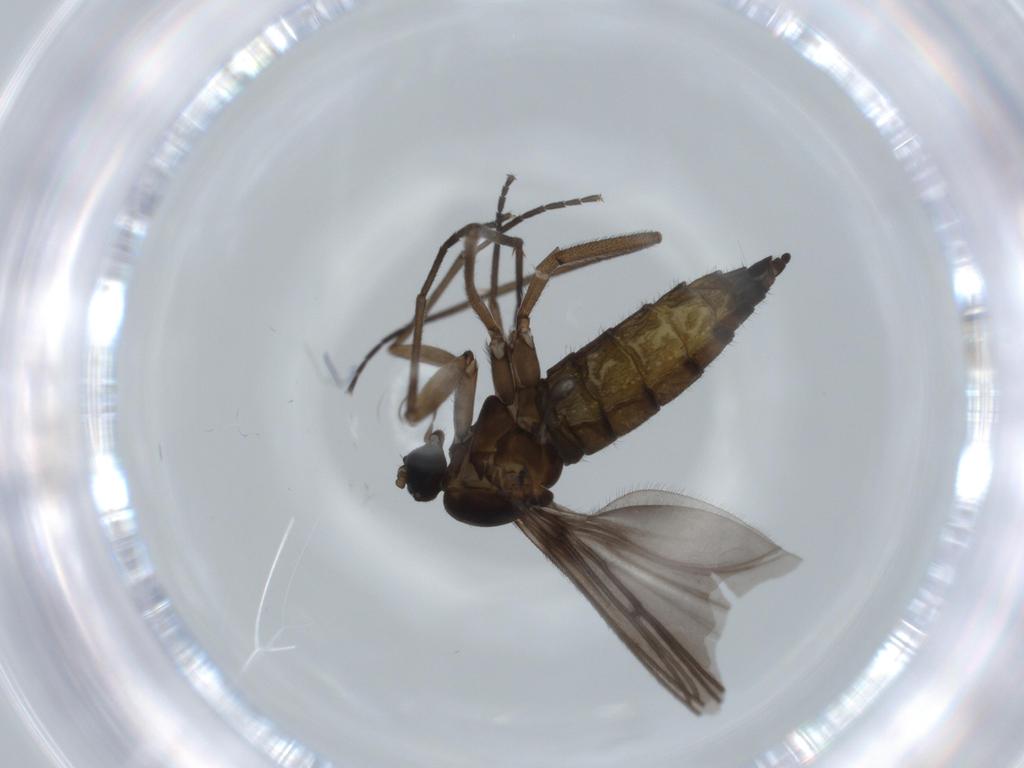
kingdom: Animalia
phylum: Arthropoda
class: Insecta
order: Diptera
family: Sciaridae
